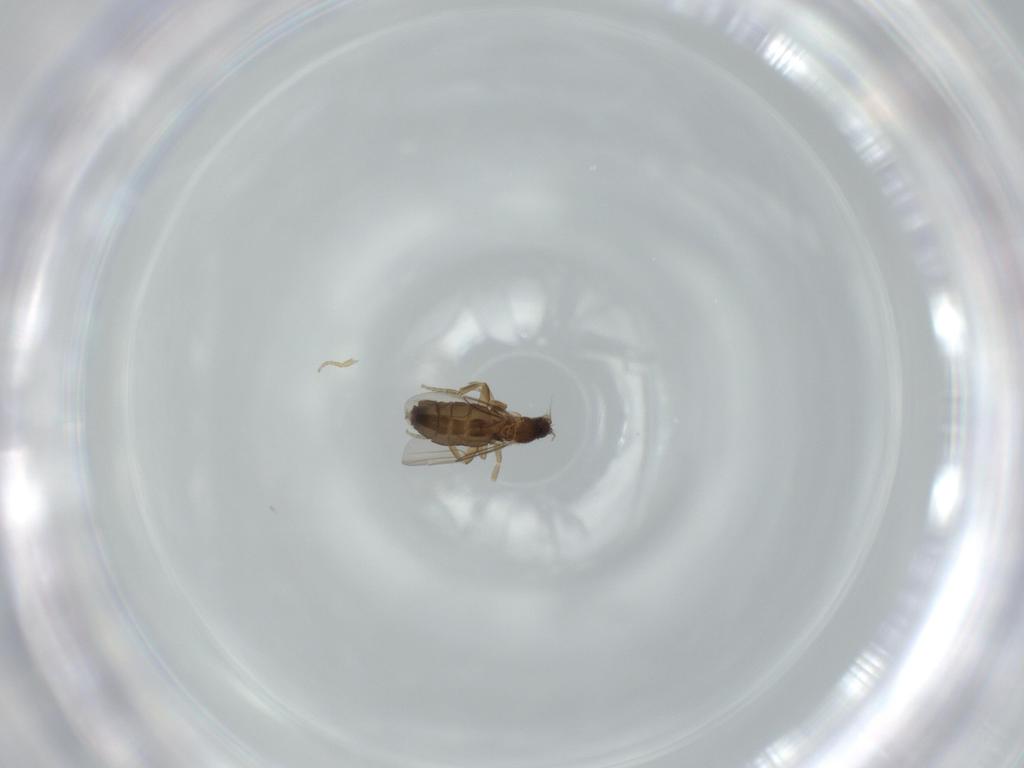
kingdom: Animalia
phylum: Arthropoda
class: Insecta
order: Diptera
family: Phoridae
